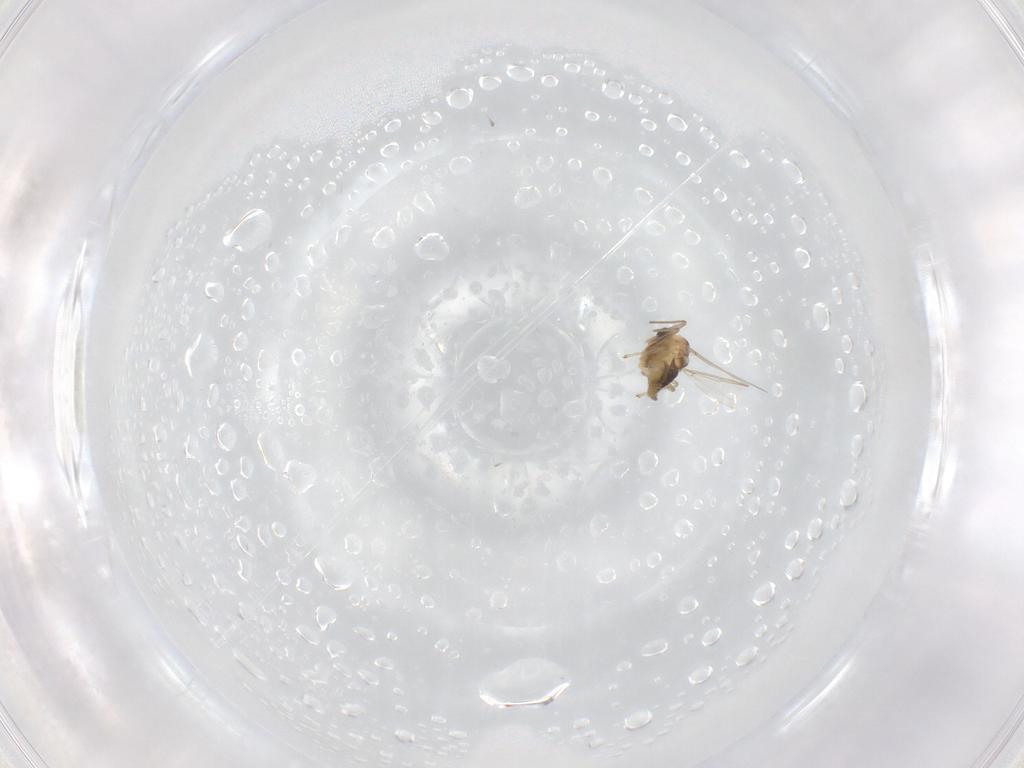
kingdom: Animalia
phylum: Arthropoda
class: Insecta
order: Diptera
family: Chironomidae
